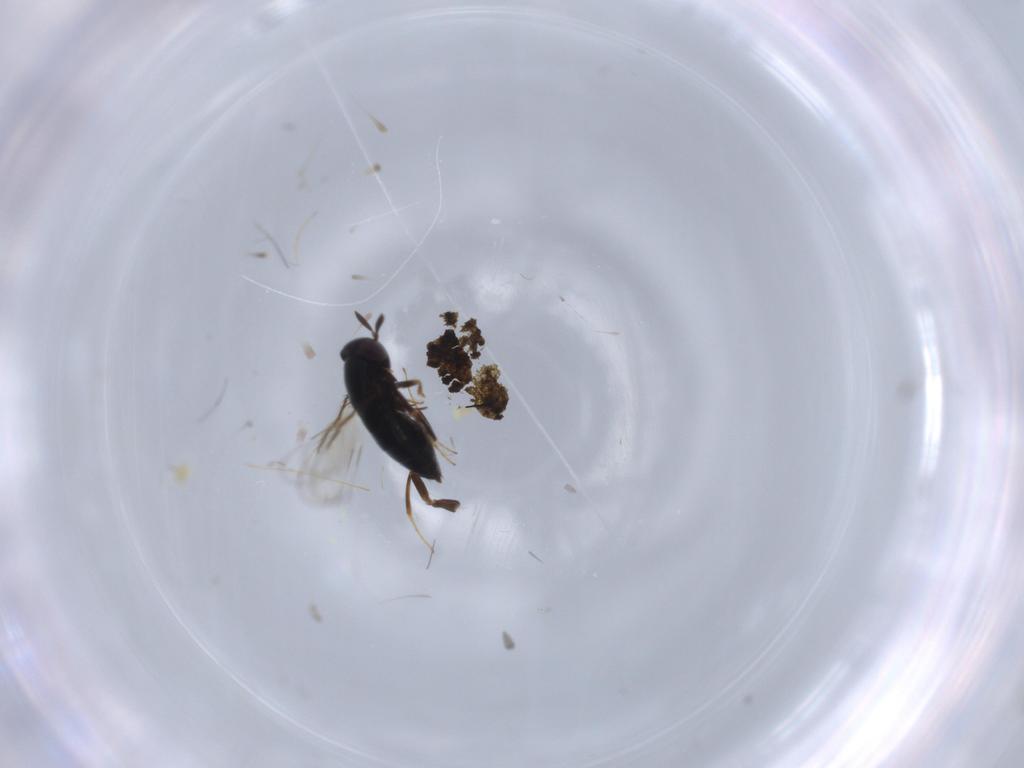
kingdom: Animalia
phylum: Arthropoda
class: Insecta
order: Hymenoptera
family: Signiphoridae
